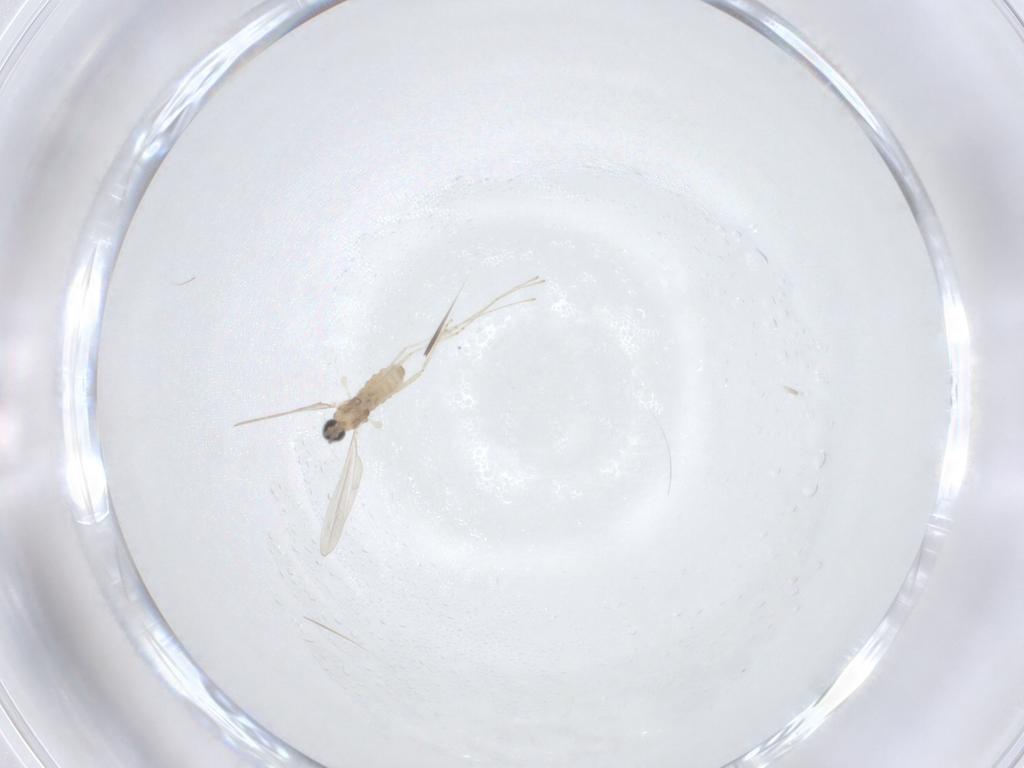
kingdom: Animalia
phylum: Arthropoda
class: Insecta
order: Diptera
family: Cecidomyiidae
